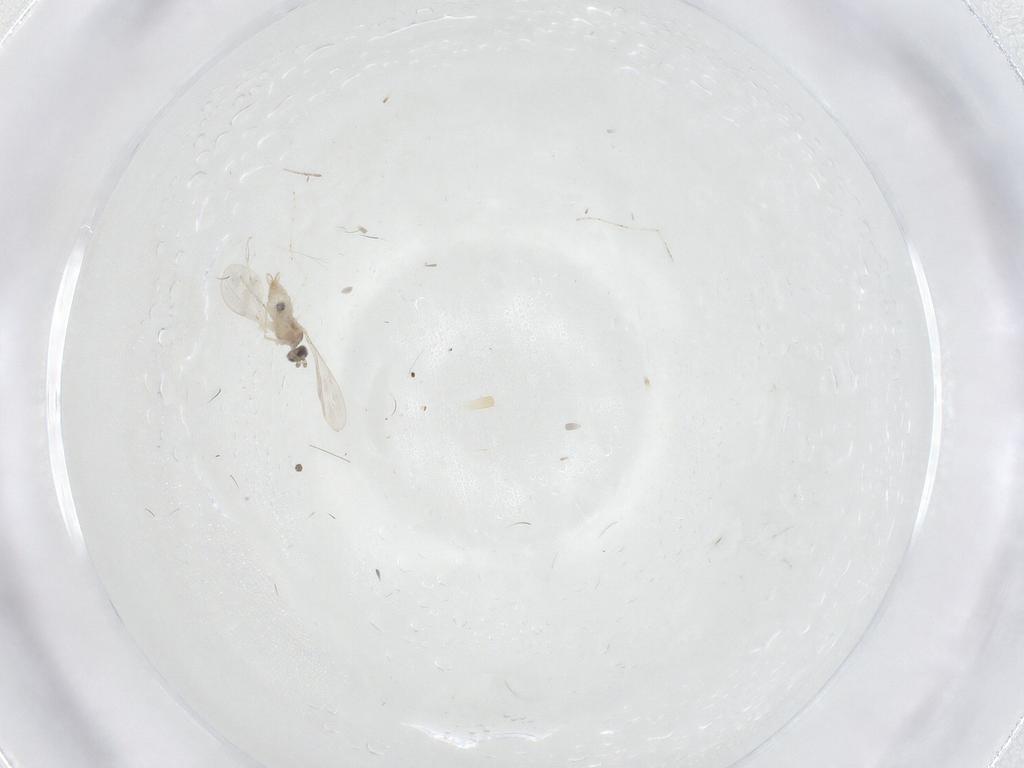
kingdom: Animalia
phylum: Arthropoda
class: Insecta
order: Diptera
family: Cecidomyiidae
